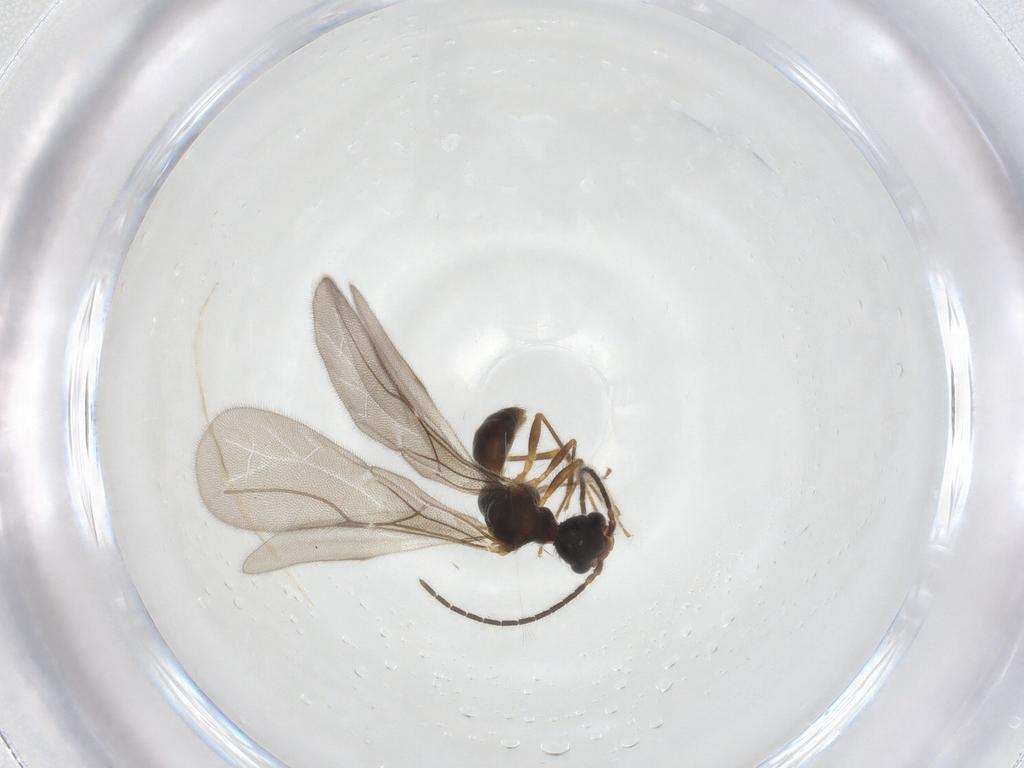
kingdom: Animalia
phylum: Arthropoda
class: Insecta
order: Hymenoptera
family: Bethylidae
